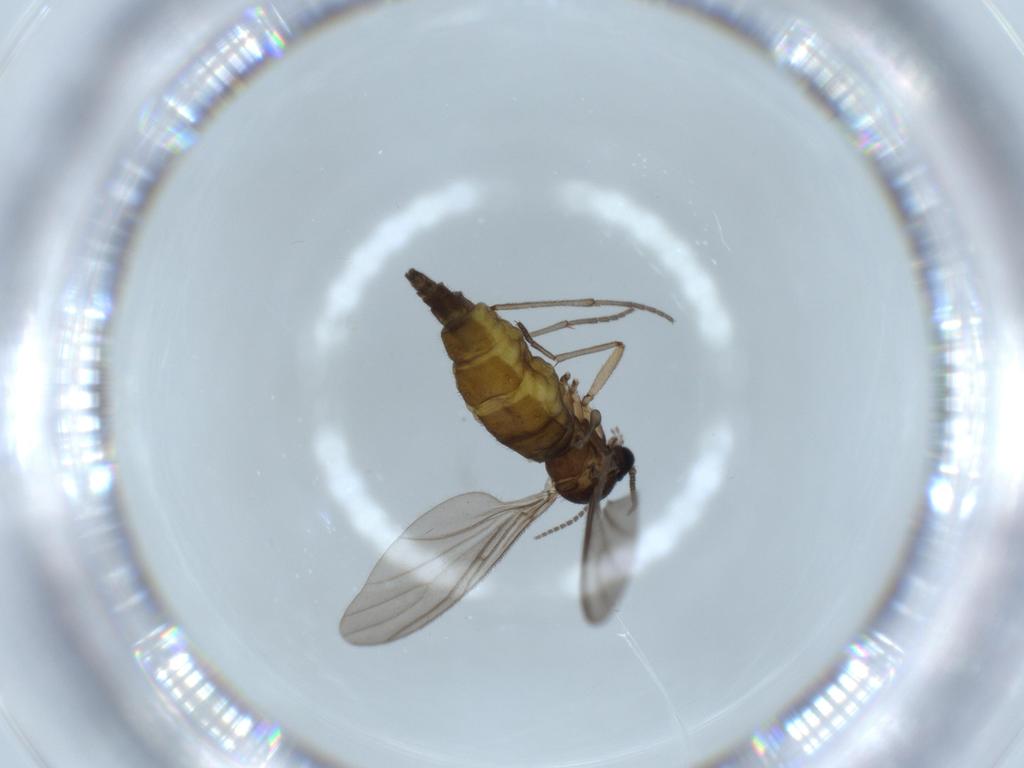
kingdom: Animalia
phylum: Arthropoda
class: Insecta
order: Diptera
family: Sciaridae
